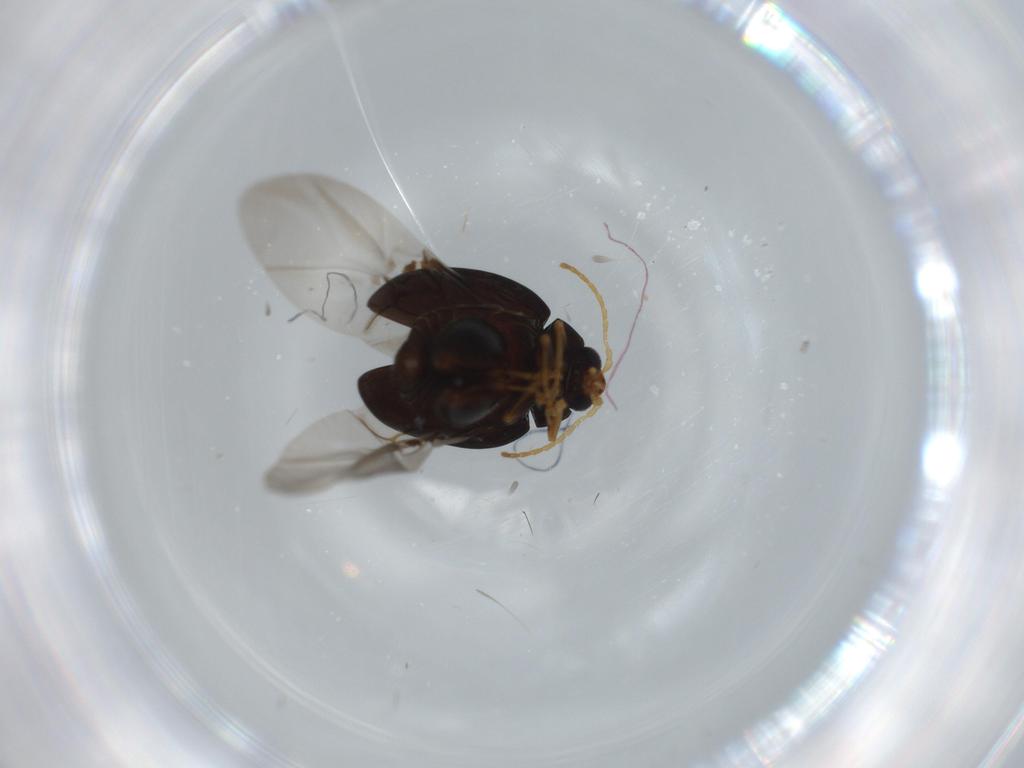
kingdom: Animalia
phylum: Arthropoda
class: Insecta
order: Coleoptera
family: Chrysomelidae
